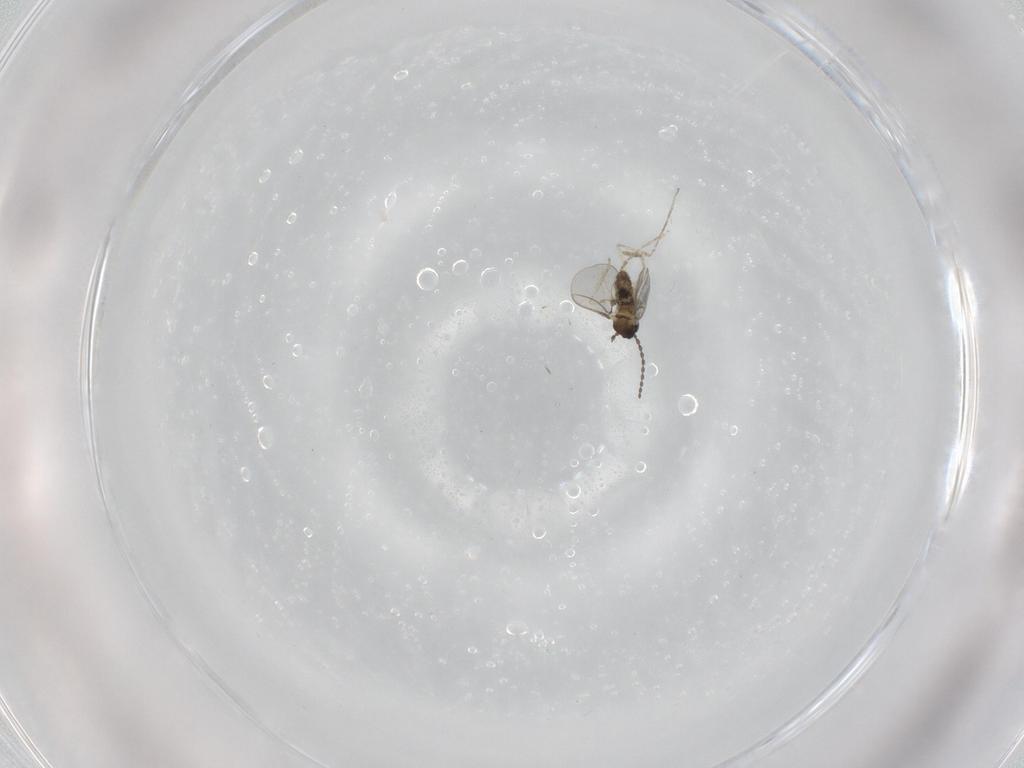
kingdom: Animalia
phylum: Arthropoda
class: Insecta
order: Diptera
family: Cecidomyiidae
